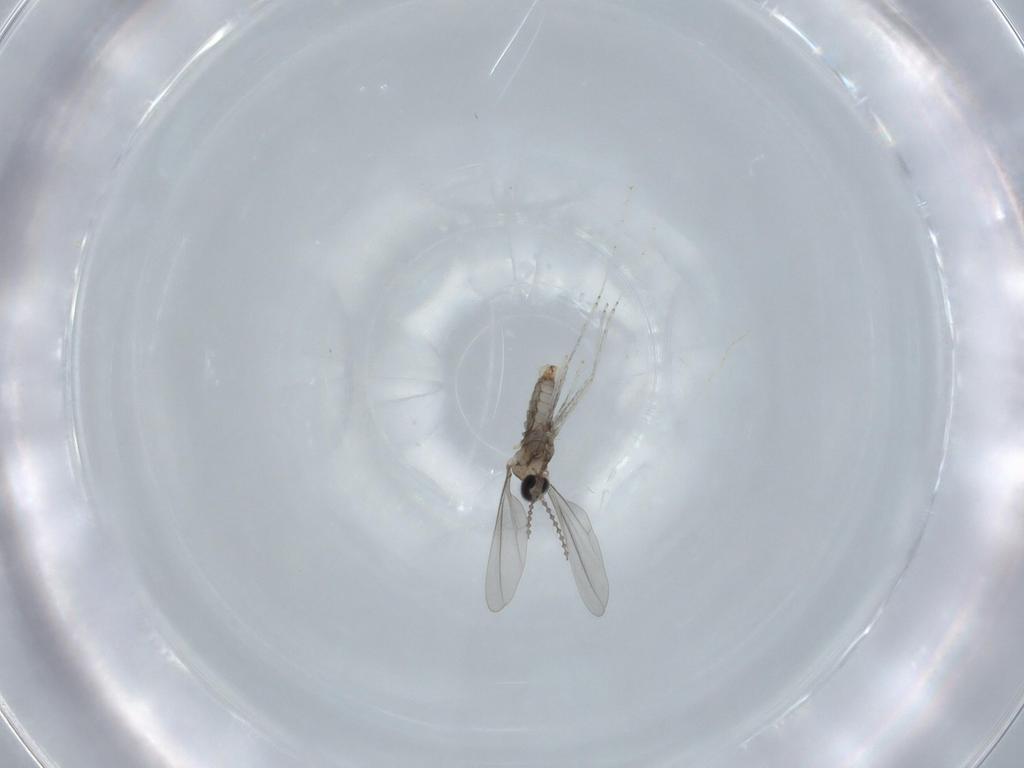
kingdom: Animalia
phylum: Arthropoda
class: Insecta
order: Diptera
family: Cecidomyiidae
